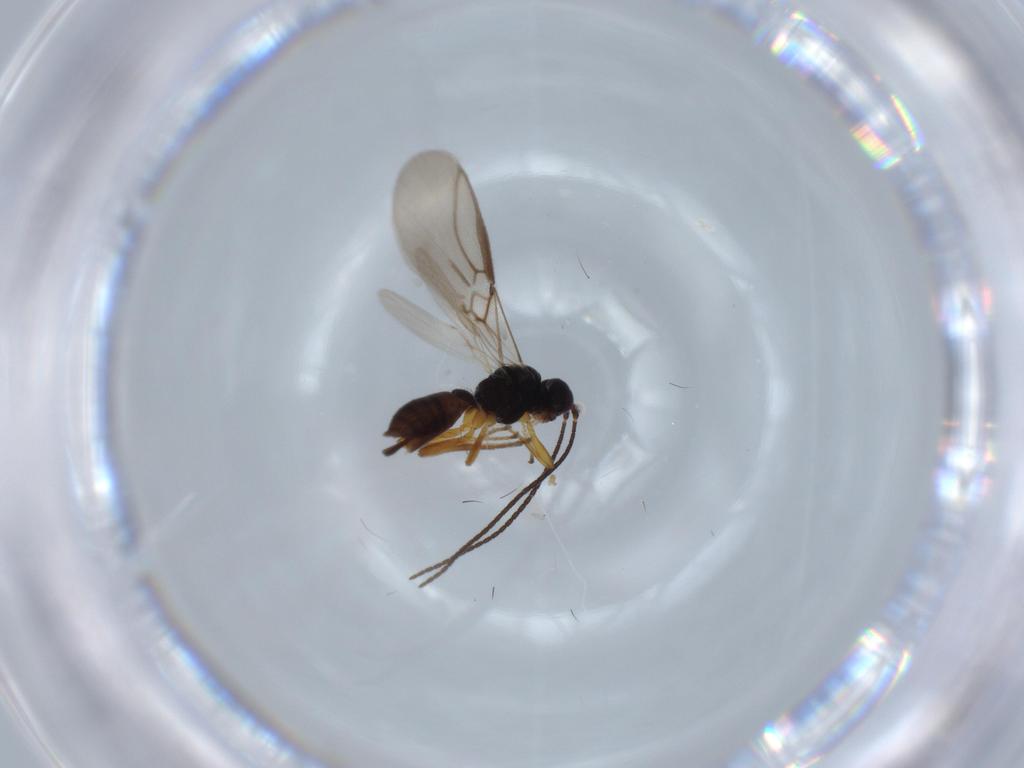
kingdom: Animalia
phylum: Arthropoda
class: Insecta
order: Hymenoptera
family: Braconidae
